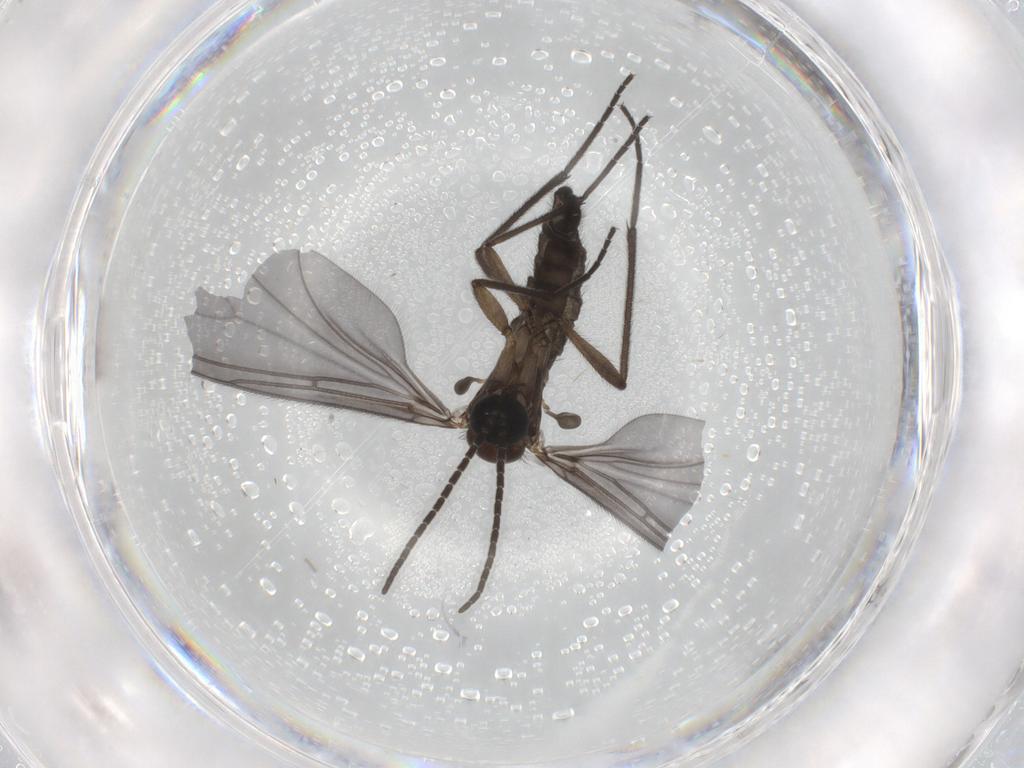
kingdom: Animalia
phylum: Arthropoda
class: Insecta
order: Diptera
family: Sciaridae
